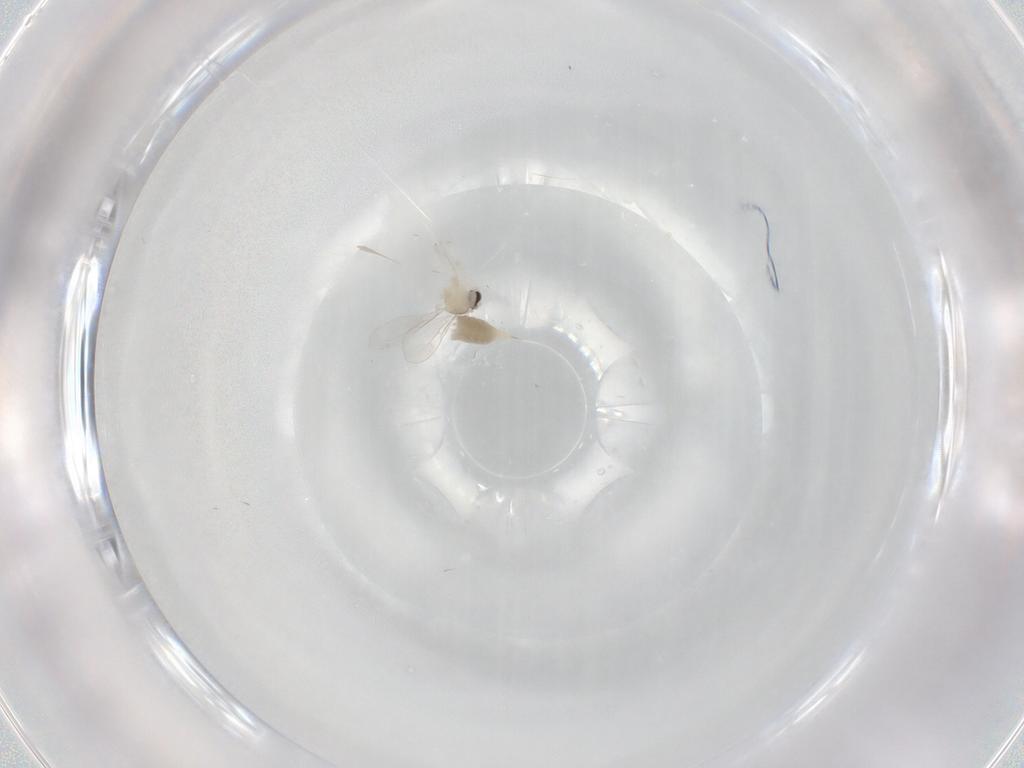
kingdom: Animalia
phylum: Arthropoda
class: Insecta
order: Diptera
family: Cecidomyiidae
